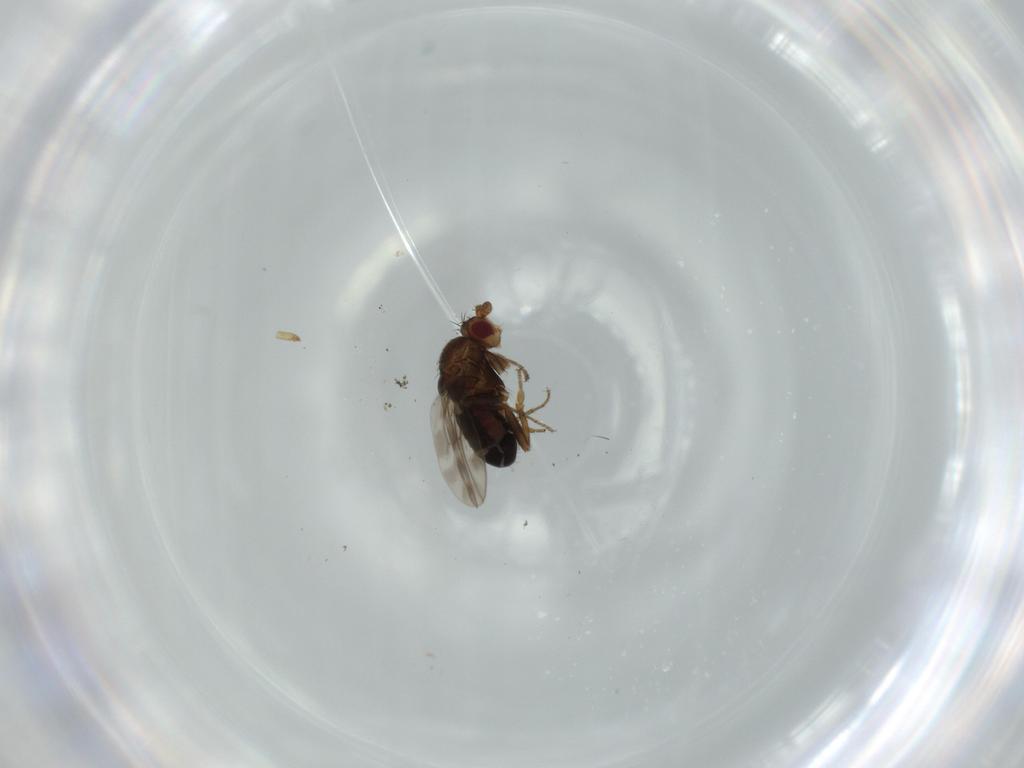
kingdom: Animalia
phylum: Arthropoda
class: Insecta
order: Diptera
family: Sphaeroceridae
